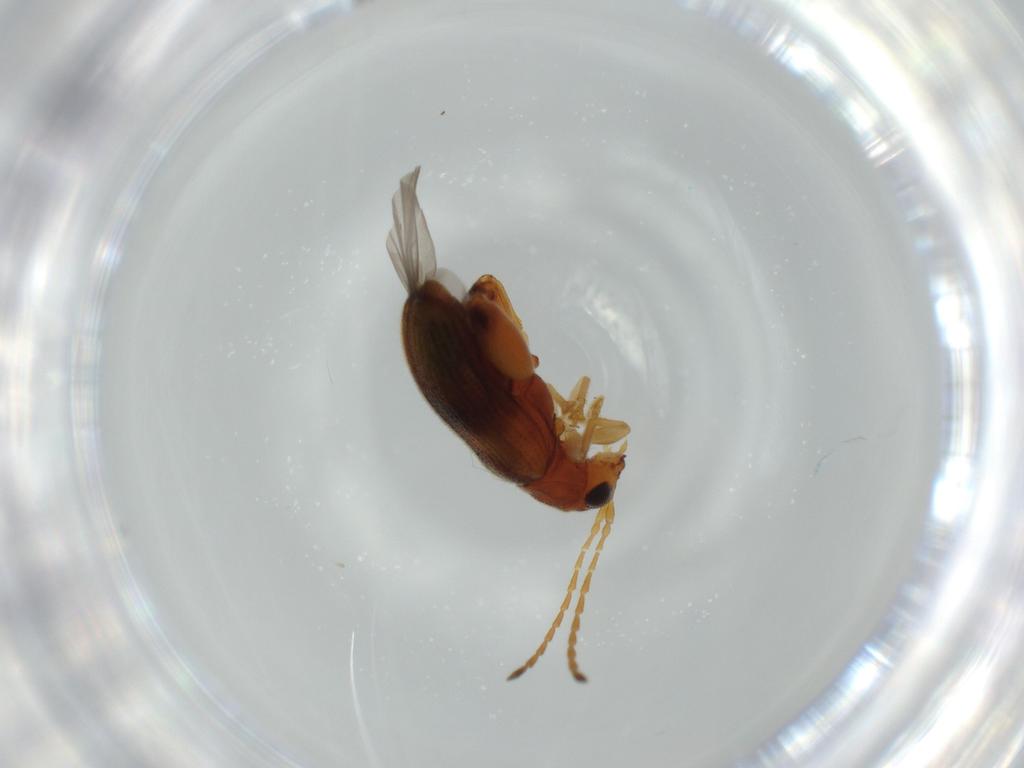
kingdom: Animalia
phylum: Arthropoda
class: Insecta
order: Coleoptera
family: Chrysomelidae
